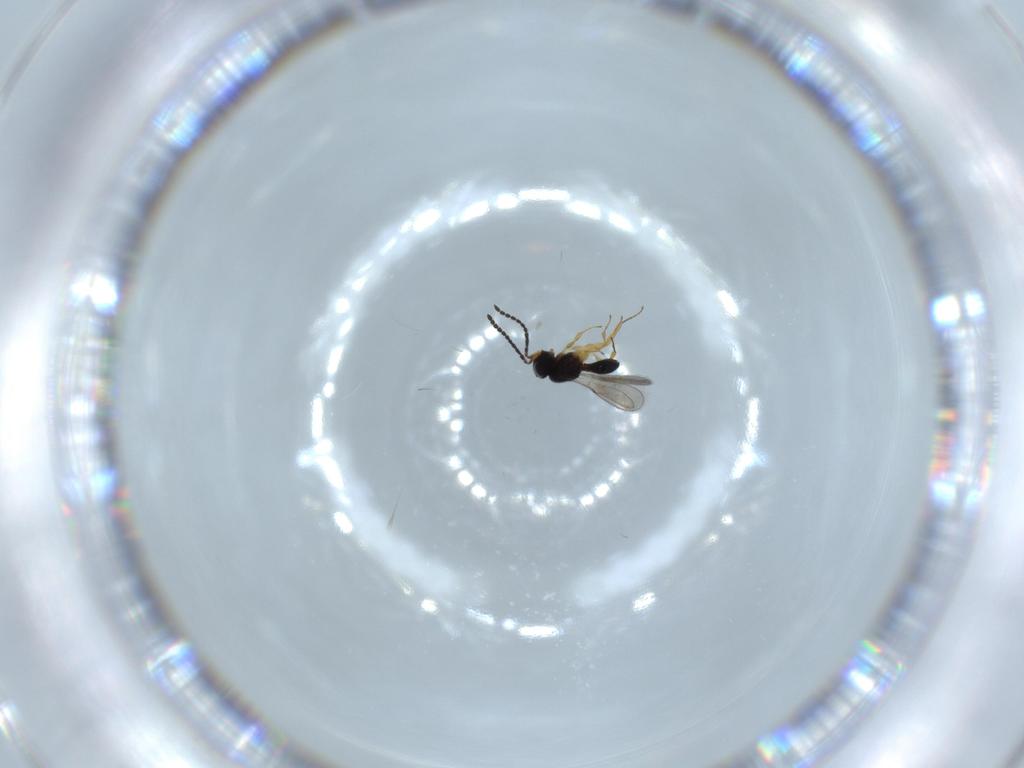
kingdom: Animalia
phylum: Arthropoda
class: Insecta
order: Hymenoptera
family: Scelionidae
